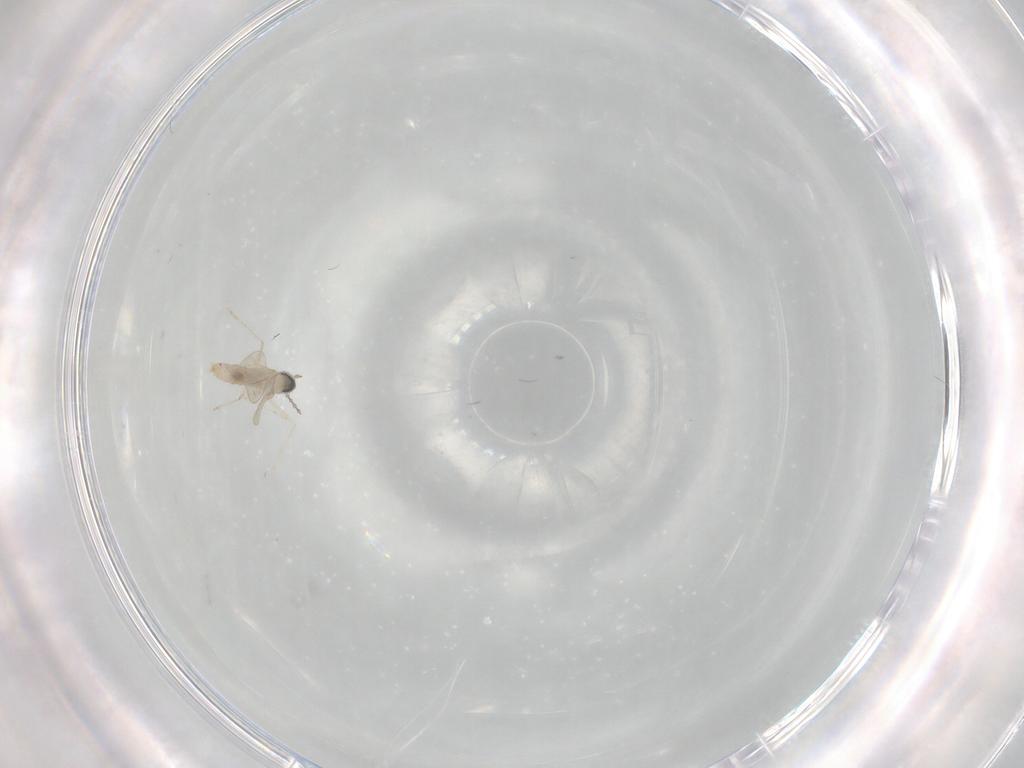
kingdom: Animalia
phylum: Arthropoda
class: Insecta
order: Diptera
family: Cecidomyiidae
